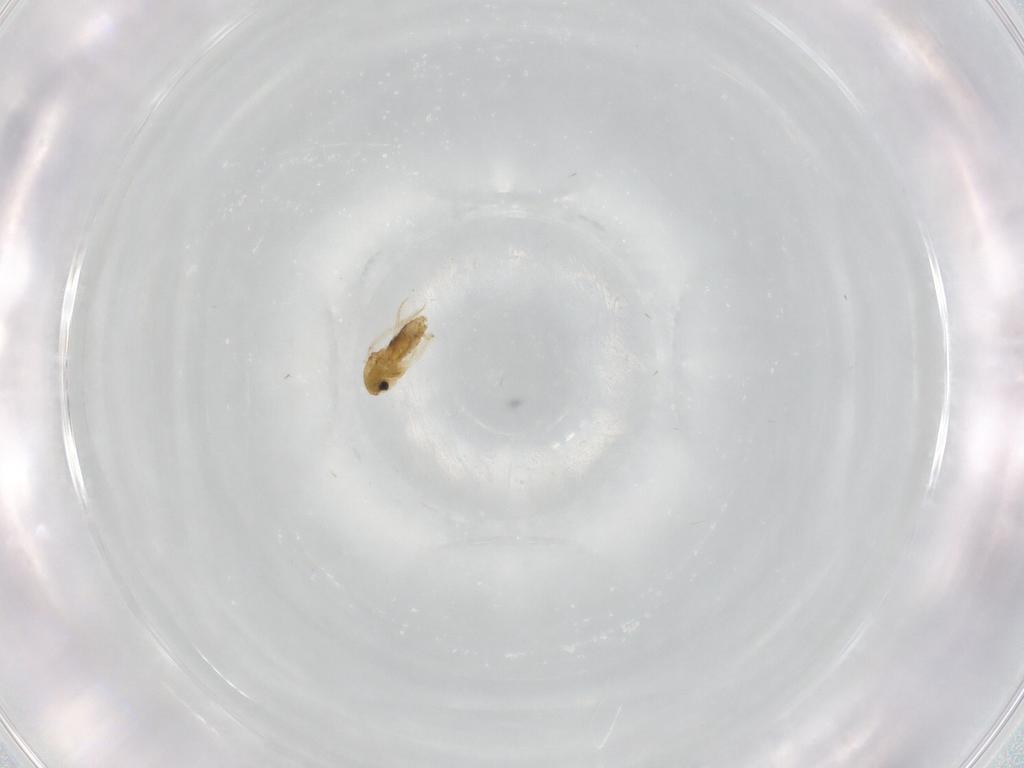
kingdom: Animalia
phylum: Arthropoda
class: Insecta
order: Diptera
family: Chironomidae
